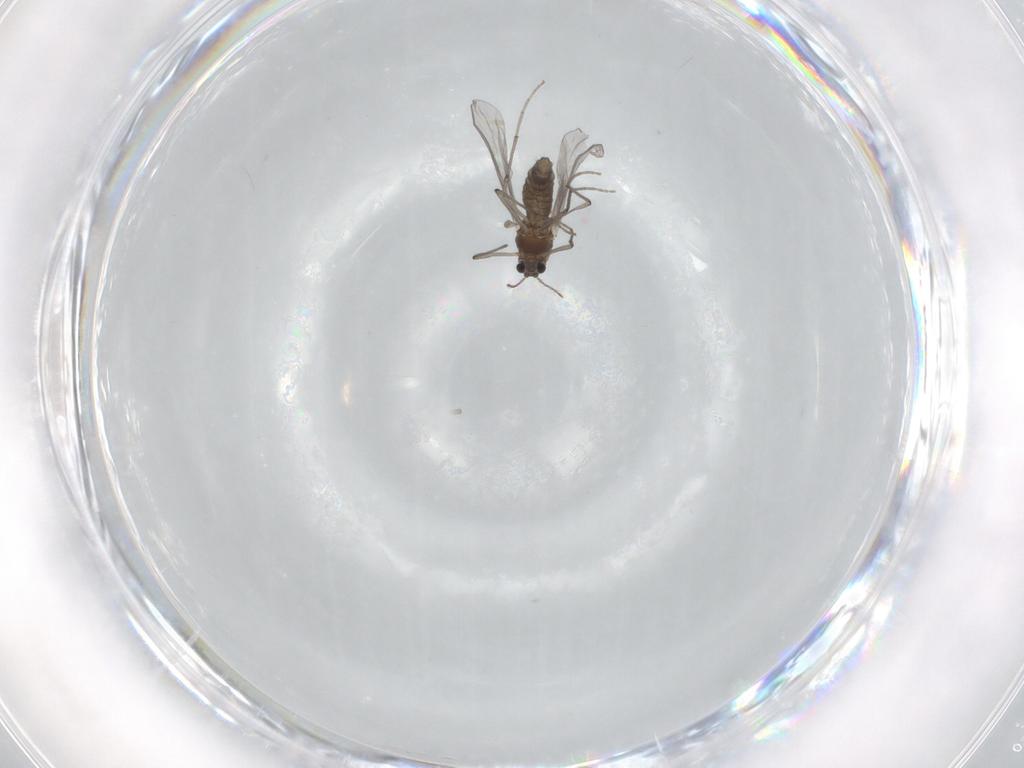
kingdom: Animalia
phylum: Arthropoda
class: Insecta
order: Diptera
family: Chironomidae
